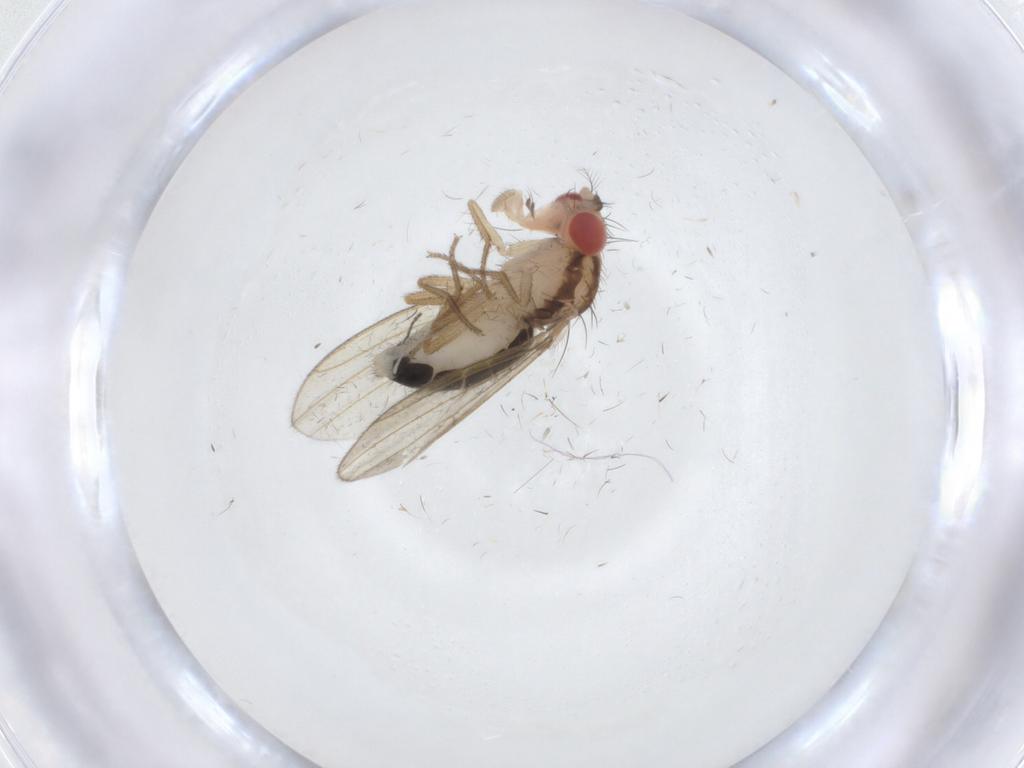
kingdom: Animalia
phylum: Arthropoda
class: Insecta
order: Diptera
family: Drosophilidae
